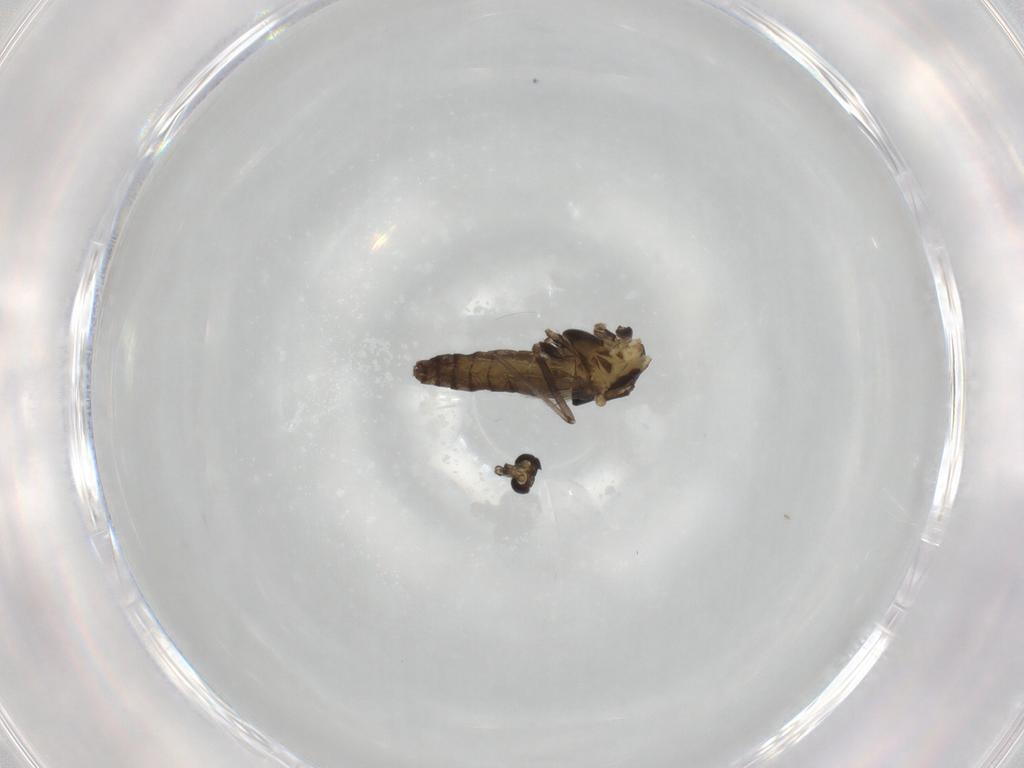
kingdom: Animalia
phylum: Arthropoda
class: Insecta
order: Diptera
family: Chironomidae
